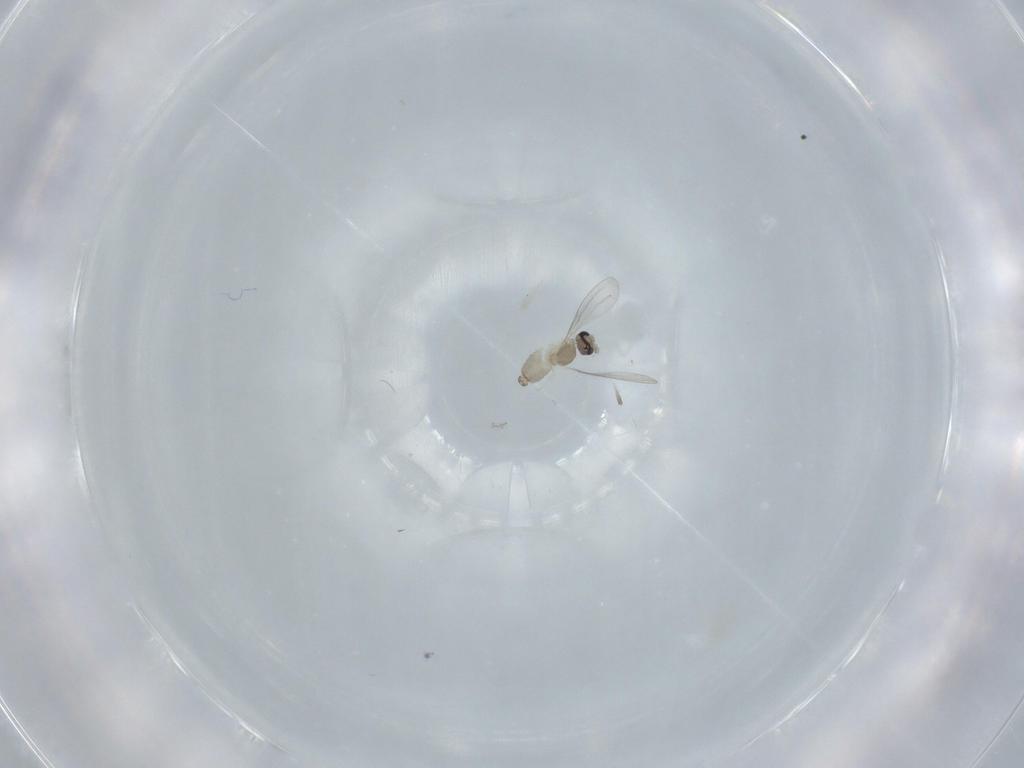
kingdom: Animalia
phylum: Arthropoda
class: Insecta
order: Diptera
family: Cecidomyiidae
